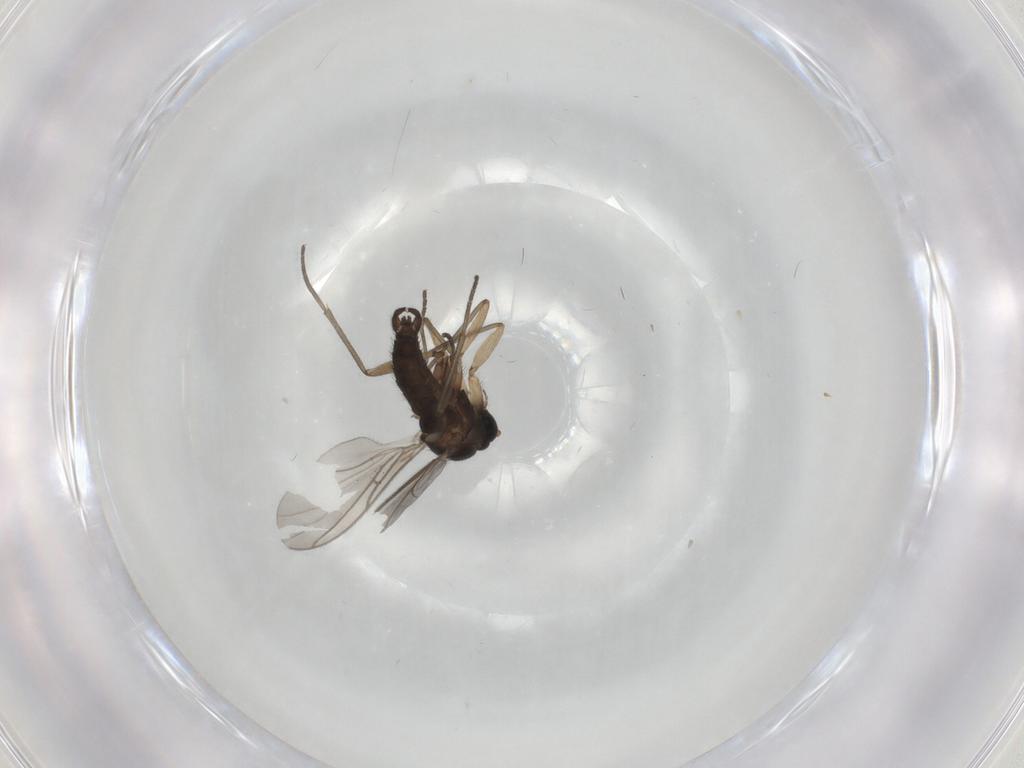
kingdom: Animalia
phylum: Arthropoda
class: Insecta
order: Diptera
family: Sciaridae
